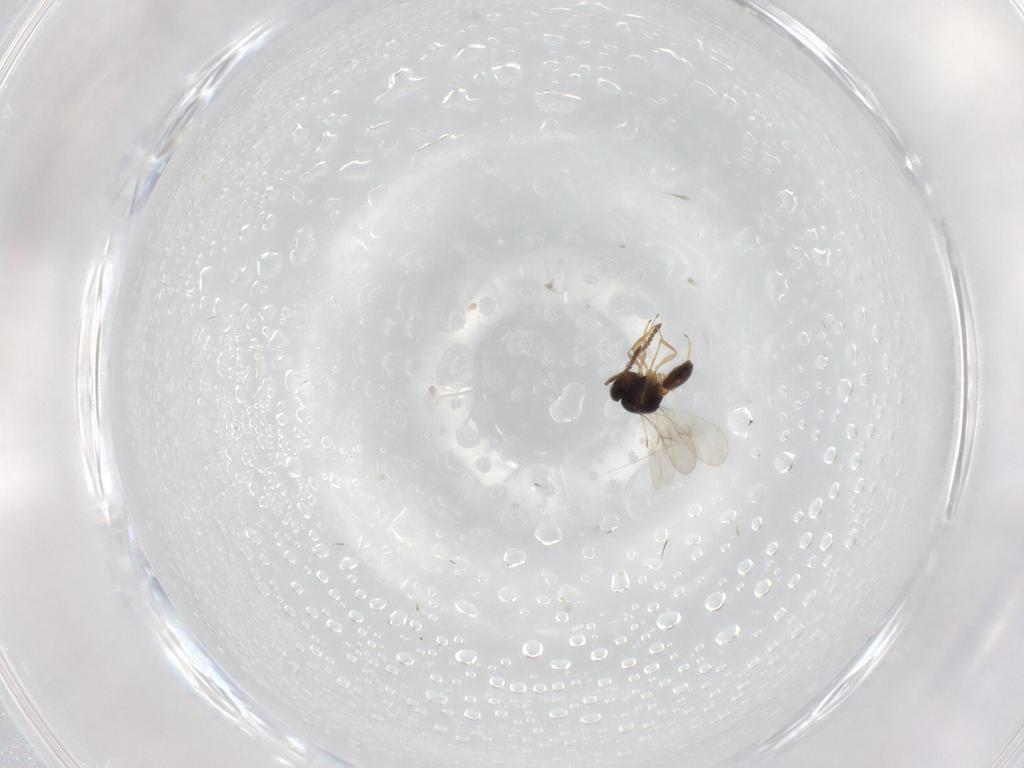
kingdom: Animalia
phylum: Arthropoda
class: Insecta
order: Hymenoptera
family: Scelionidae
